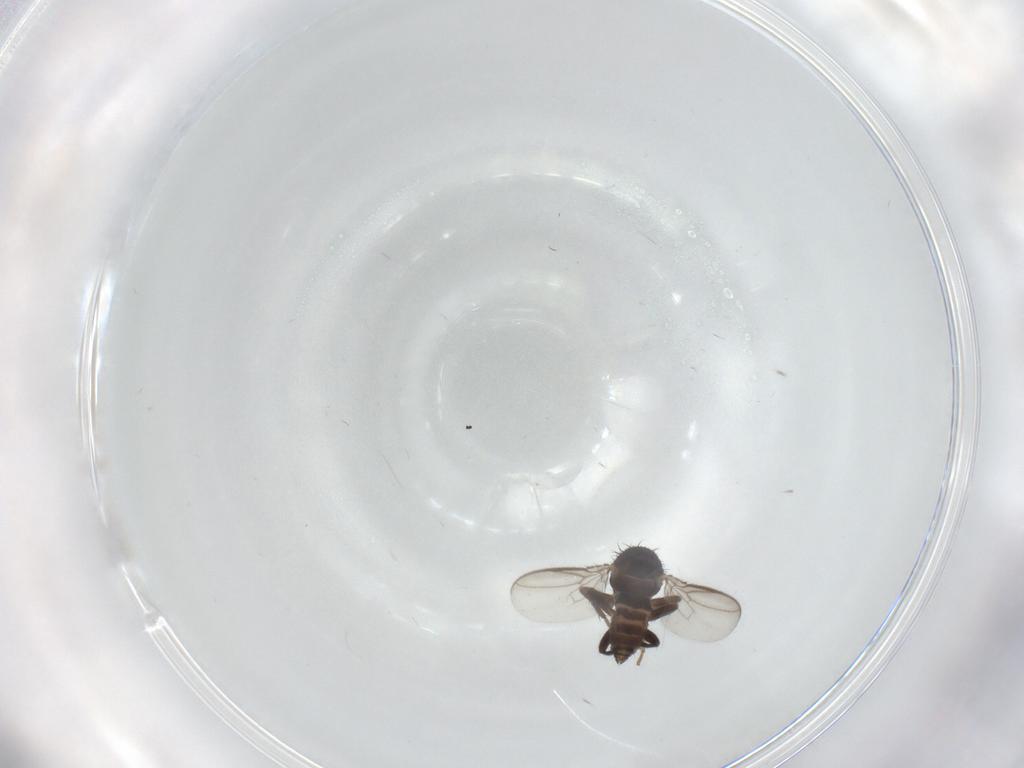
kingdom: Animalia
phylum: Arthropoda
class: Insecta
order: Diptera
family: Sphaeroceridae
